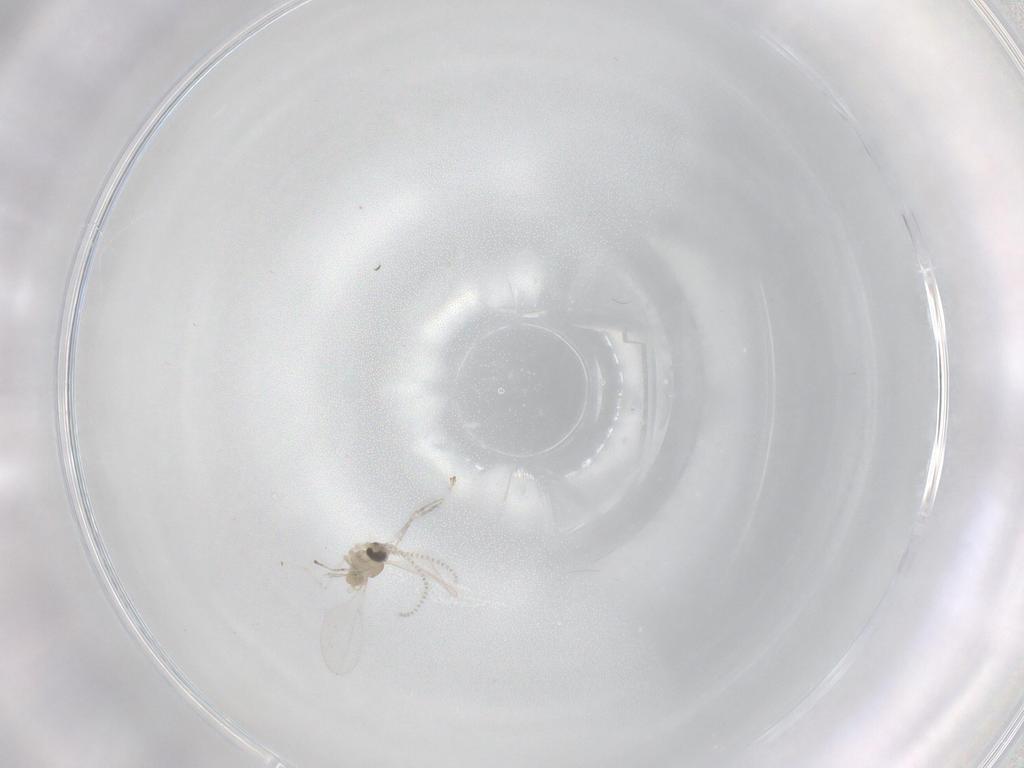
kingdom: Animalia
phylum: Arthropoda
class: Insecta
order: Diptera
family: Cecidomyiidae
